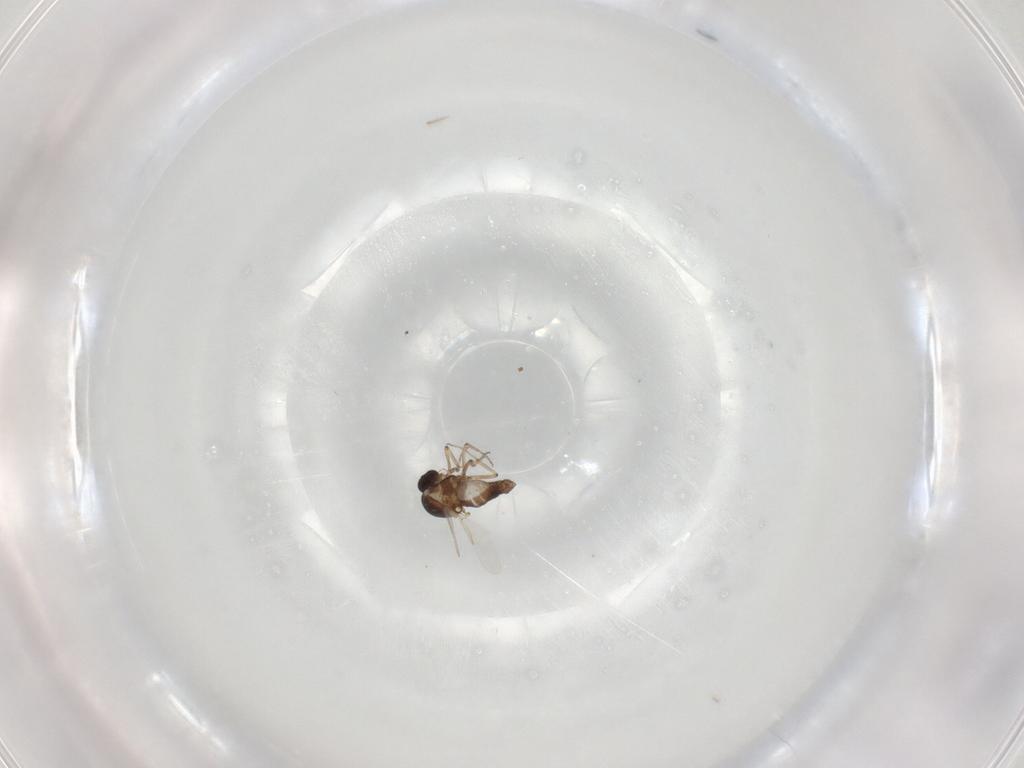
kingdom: Animalia
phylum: Arthropoda
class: Insecta
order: Diptera
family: Ceratopogonidae
